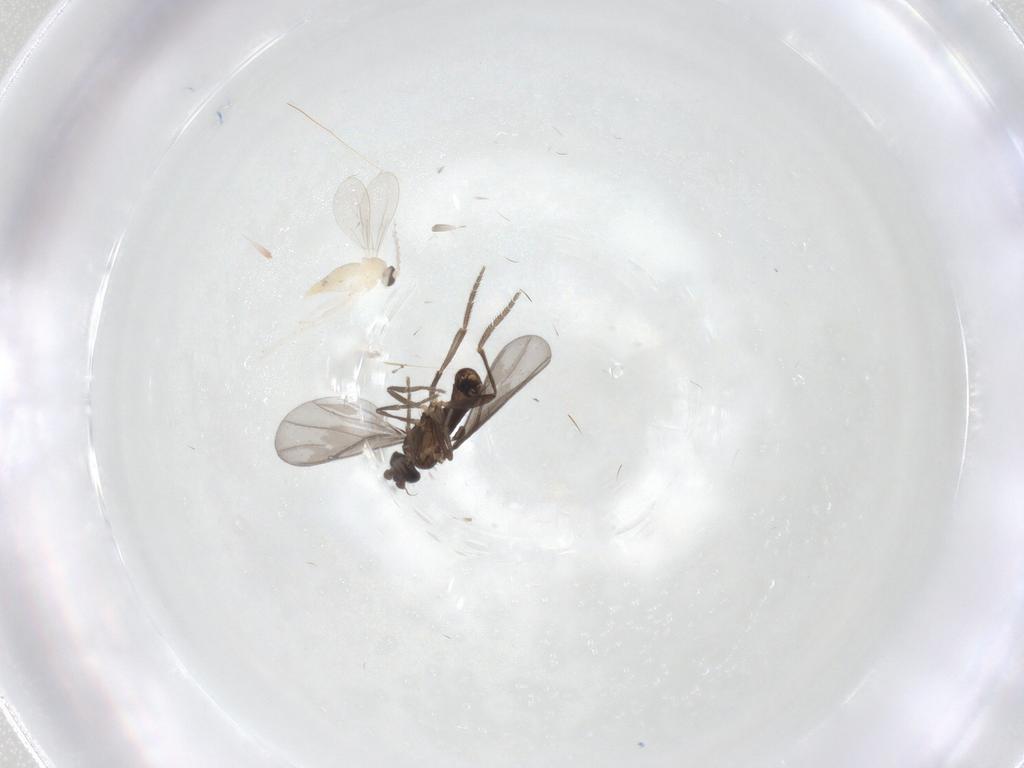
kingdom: Animalia
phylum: Arthropoda
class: Insecta
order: Diptera
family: Phoridae
